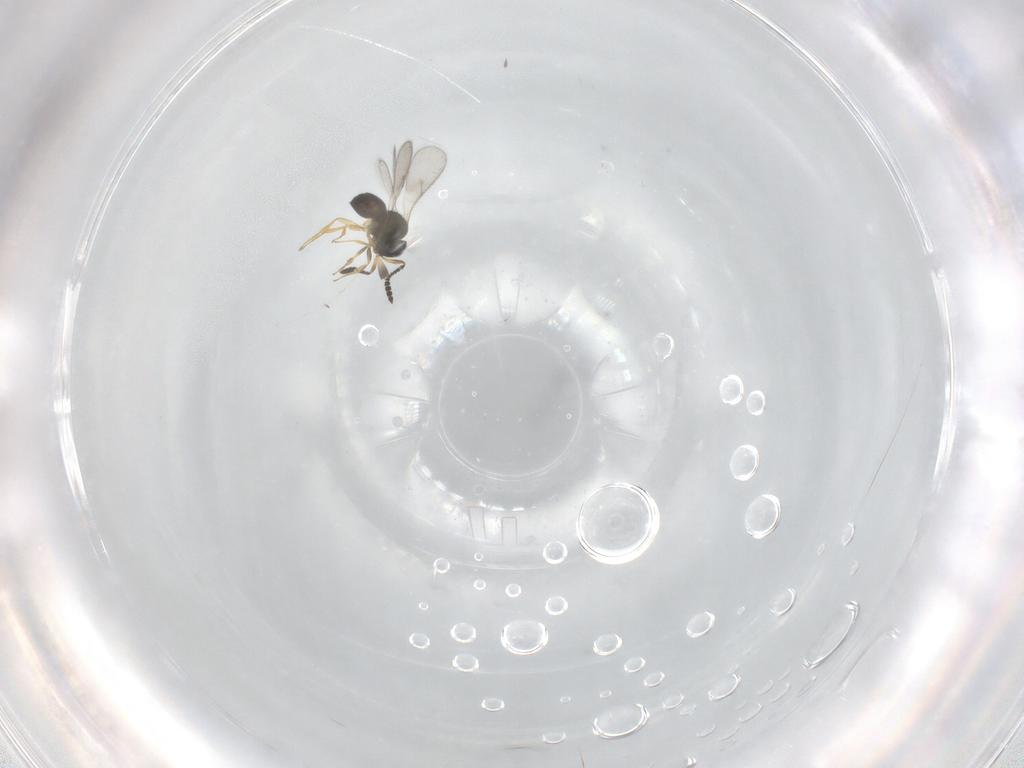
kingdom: Animalia
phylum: Arthropoda
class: Insecta
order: Hymenoptera
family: Scelionidae
